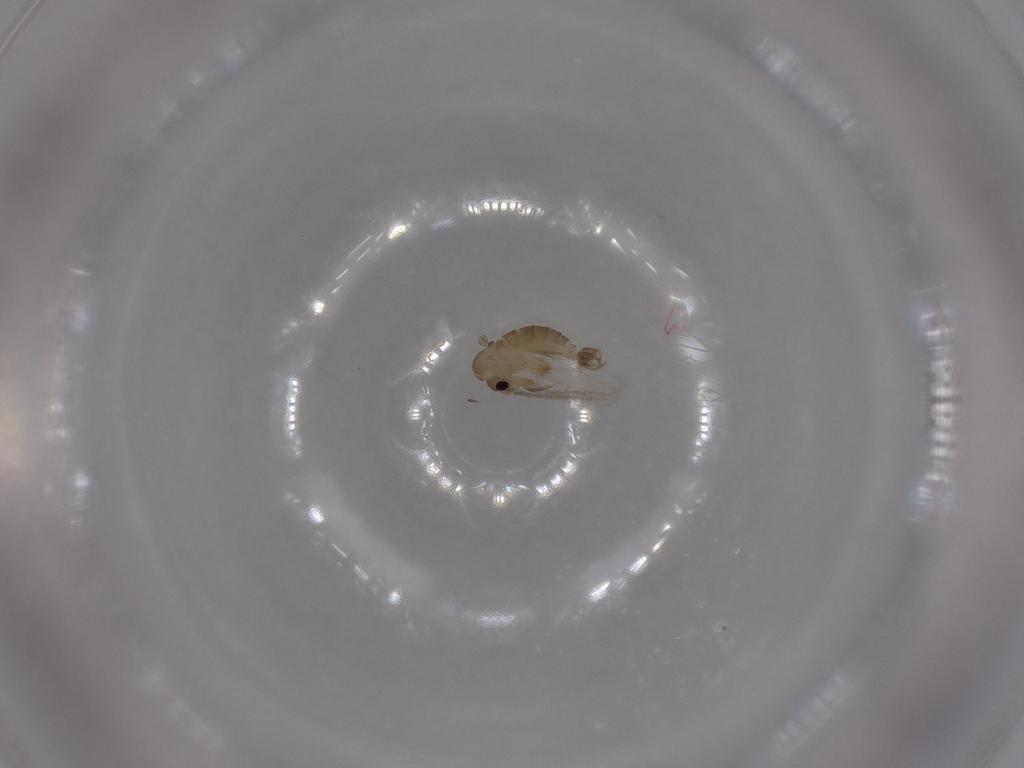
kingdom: Animalia
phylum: Arthropoda
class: Insecta
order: Diptera
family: Psychodidae
